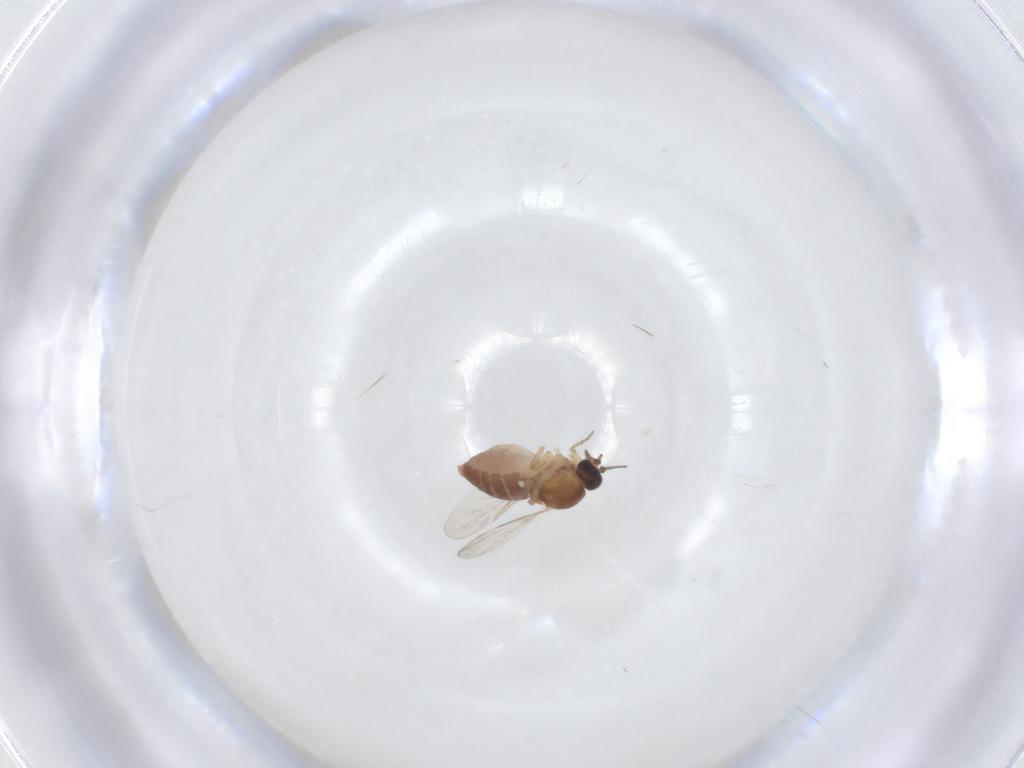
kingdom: Animalia
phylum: Arthropoda
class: Insecta
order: Diptera
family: Ceratopogonidae
